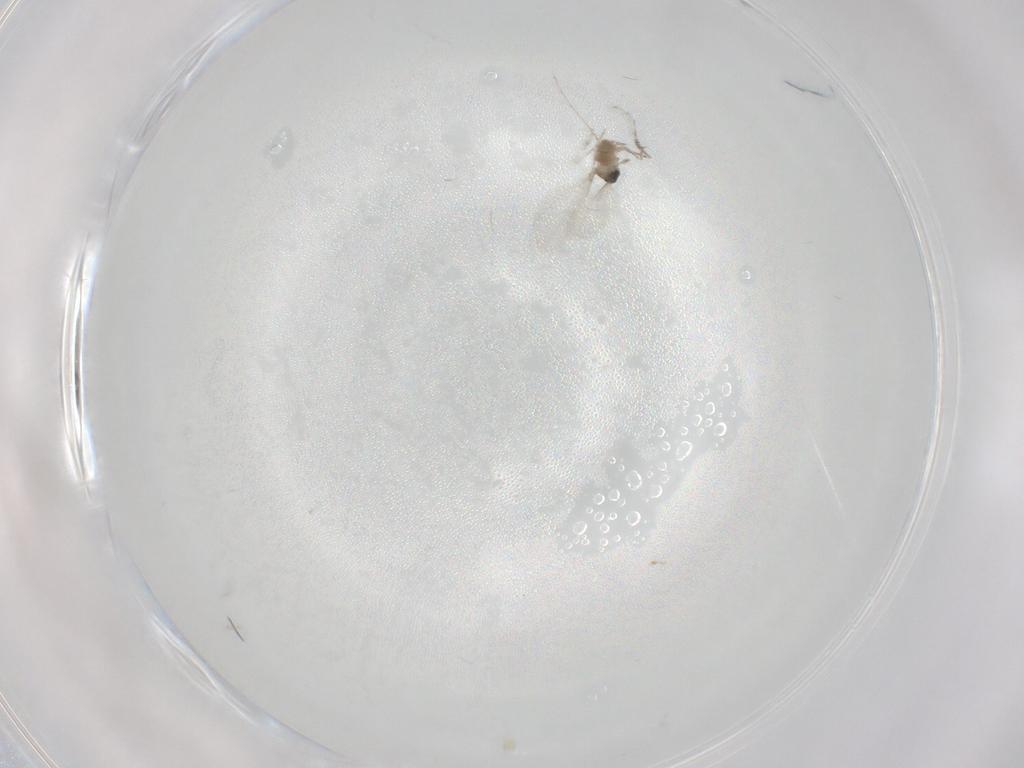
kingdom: Animalia
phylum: Arthropoda
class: Insecta
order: Diptera
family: Cecidomyiidae
